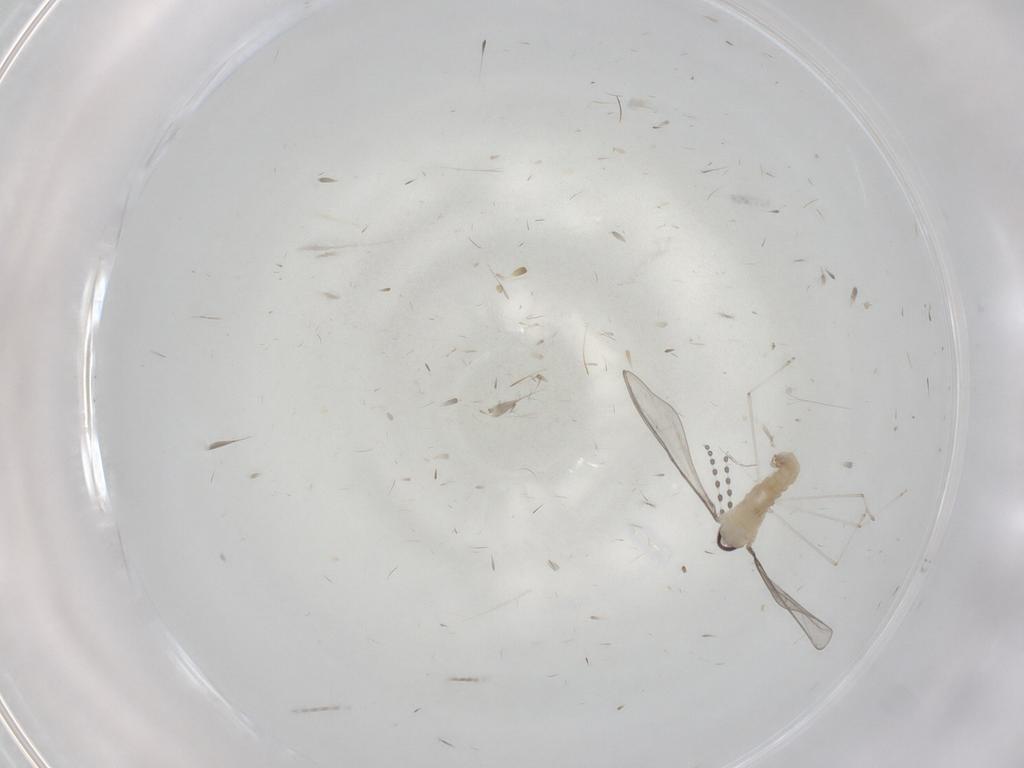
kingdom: Animalia
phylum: Arthropoda
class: Insecta
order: Diptera
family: Cecidomyiidae
